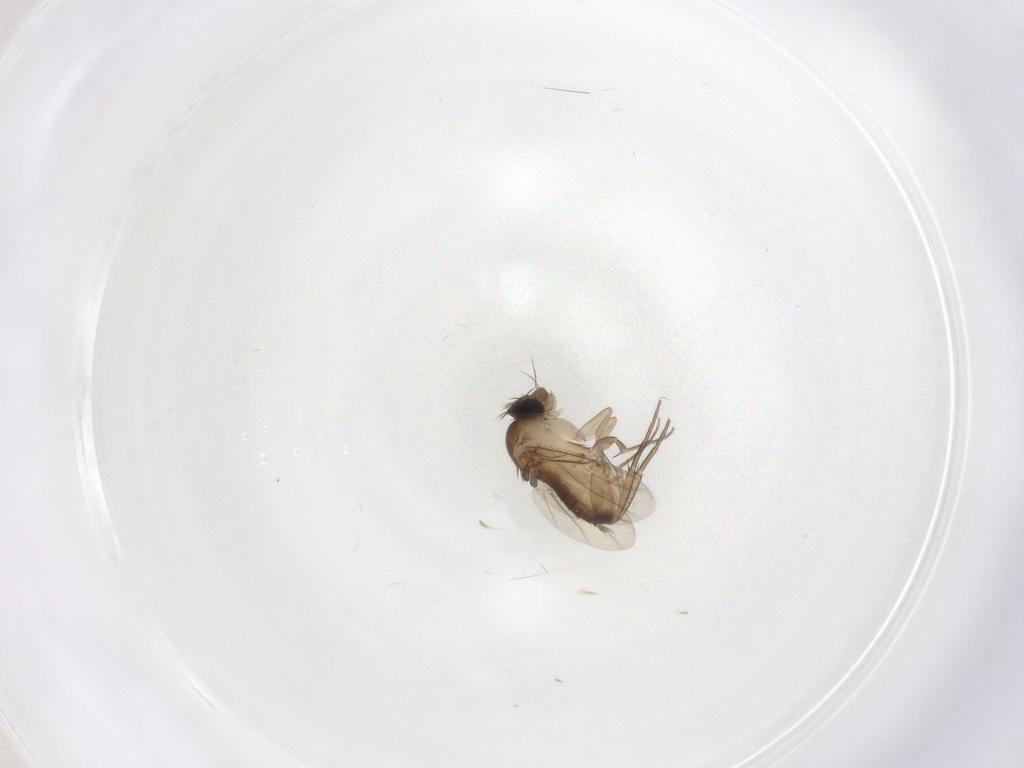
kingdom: Animalia
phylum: Arthropoda
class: Insecta
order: Diptera
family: Phoridae
